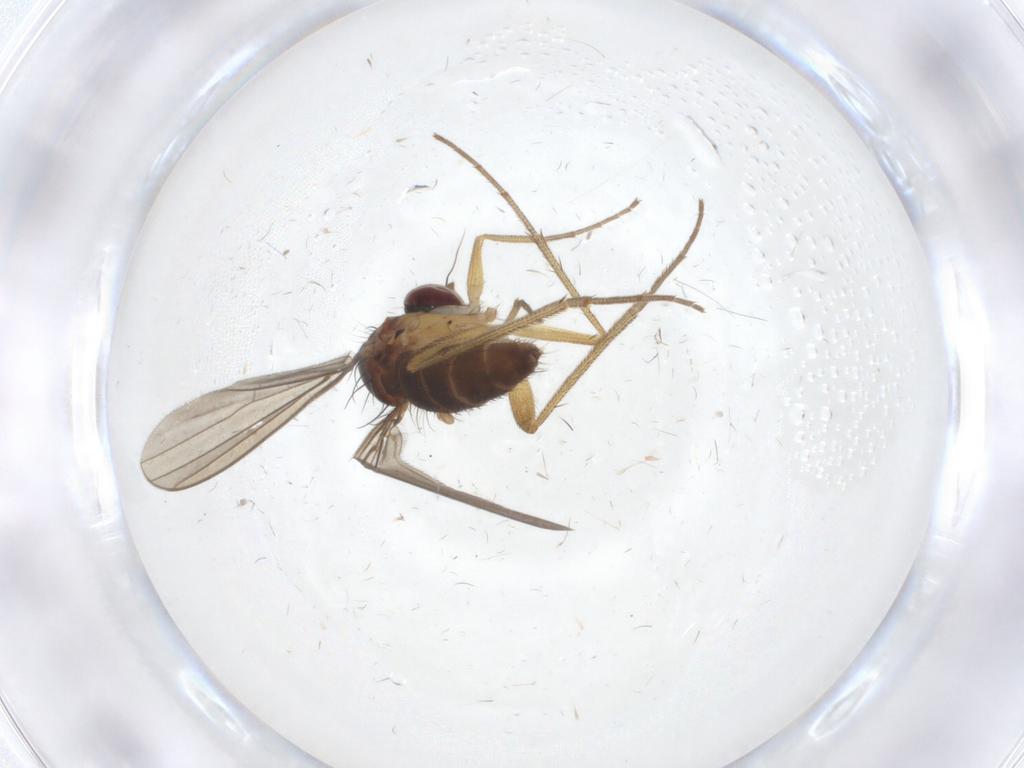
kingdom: Animalia
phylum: Arthropoda
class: Insecta
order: Diptera
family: Dolichopodidae
